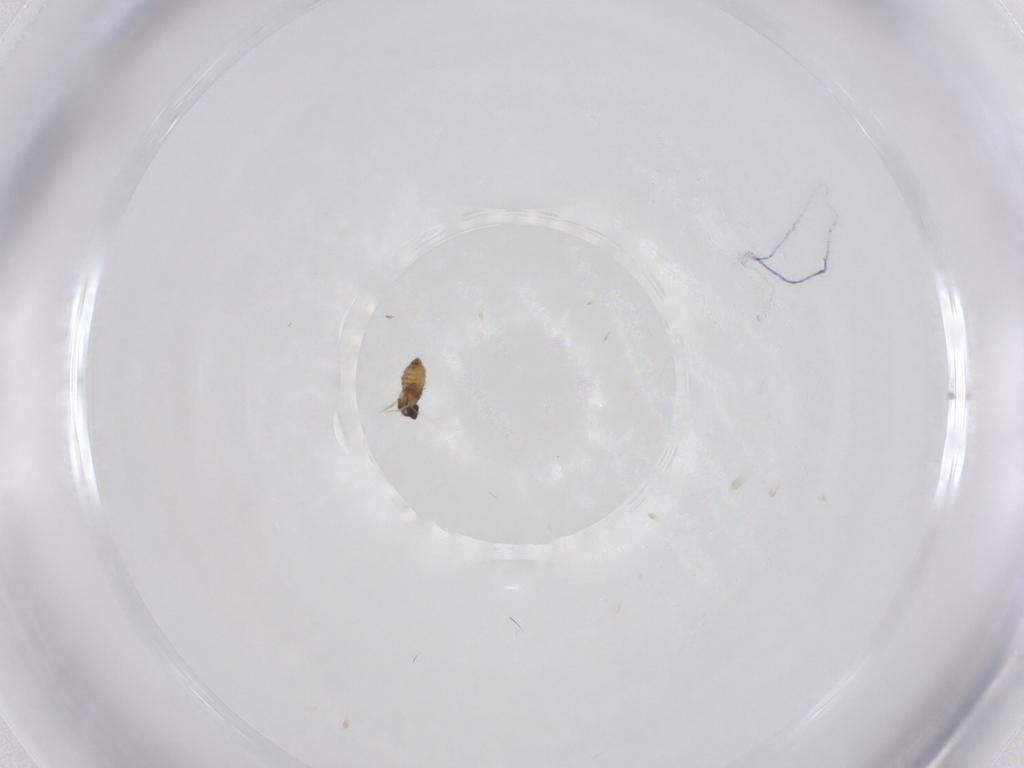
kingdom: Animalia
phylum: Arthropoda
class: Insecta
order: Diptera
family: Cecidomyiidae
